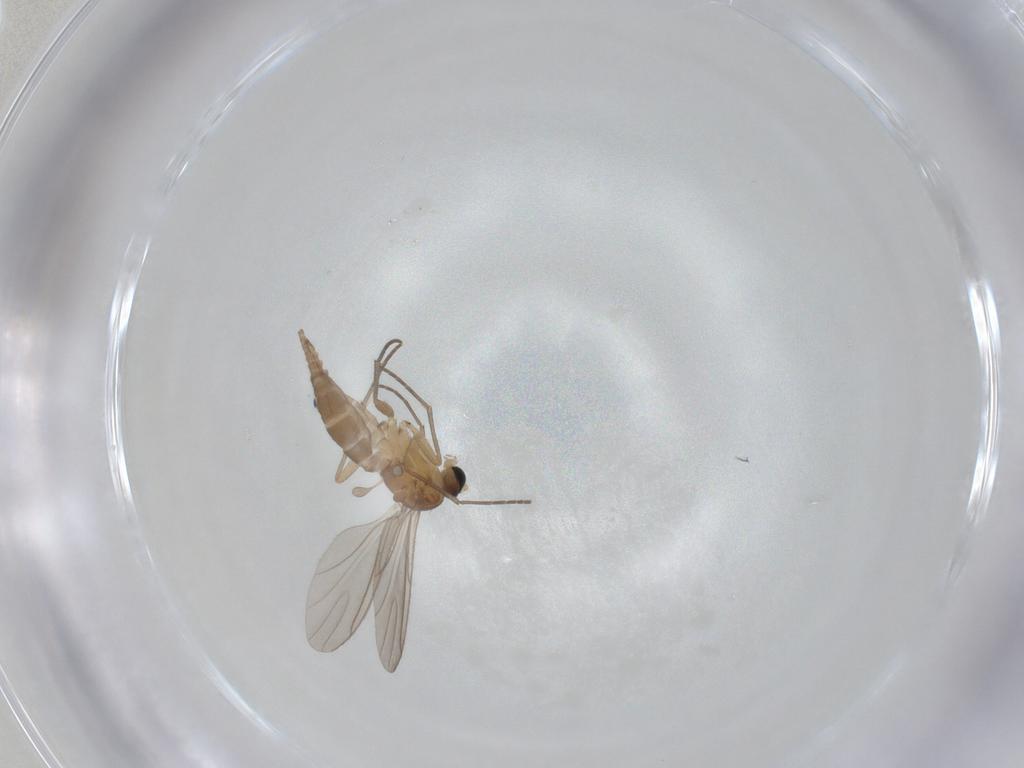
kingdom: Animalia
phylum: Arthropoda
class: Insecta
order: Diptera
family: Sciaridae
